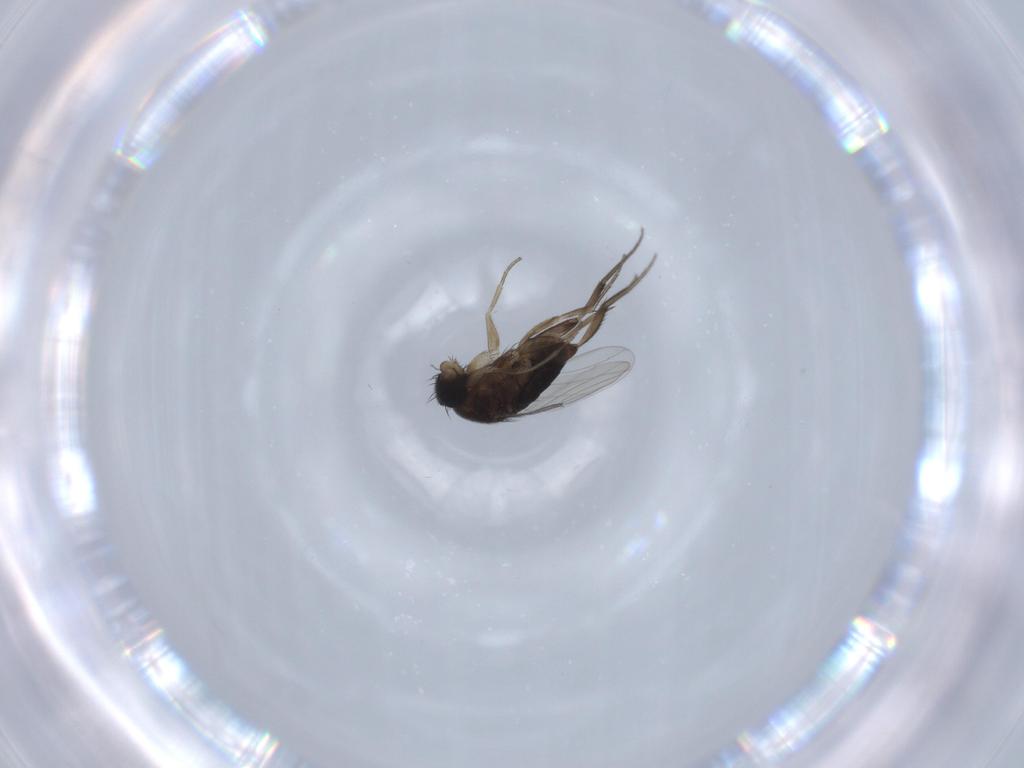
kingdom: Animalia
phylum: Arthropoda
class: Insecta
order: Diptera
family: Phoridae
